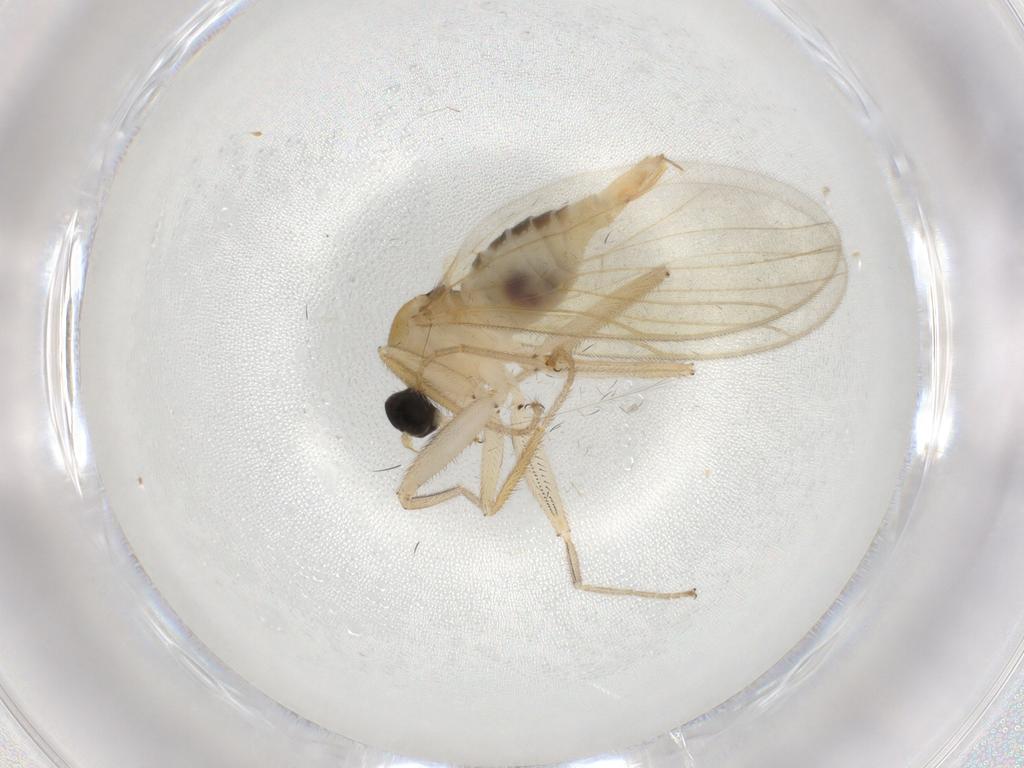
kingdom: Animalia
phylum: Arthropoda
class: Insecta
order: Diptera
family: Hybotidae
